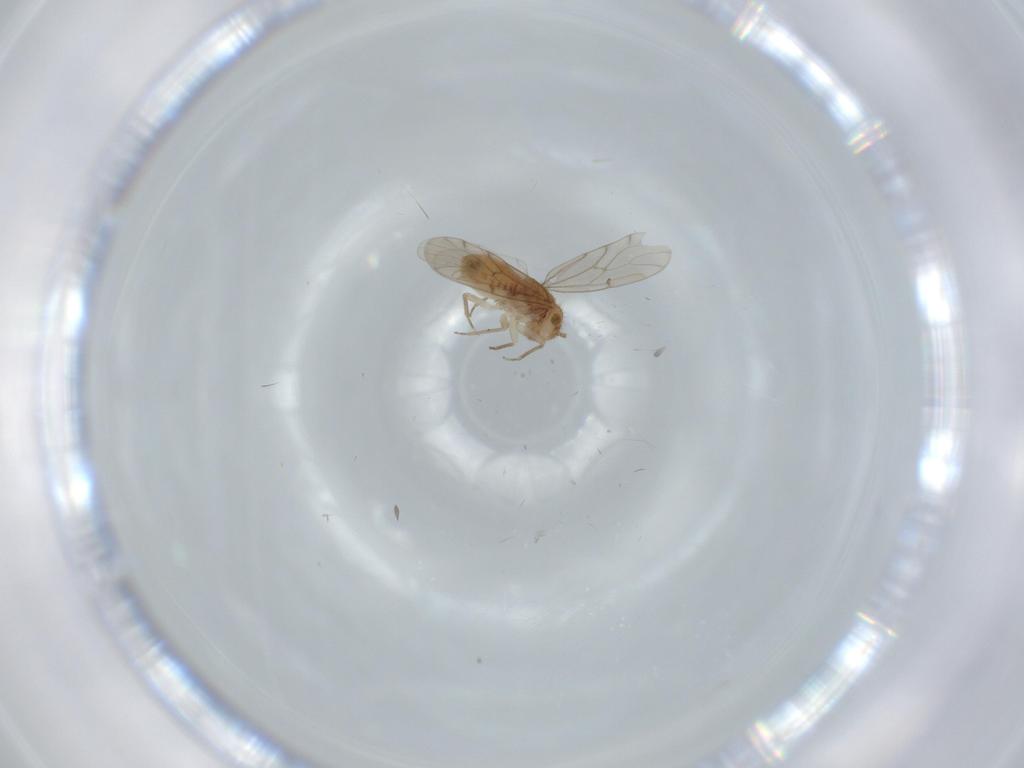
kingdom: Animalia
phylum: Arthropoda
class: Insecta
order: Psocodea
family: Ectopsocidae
